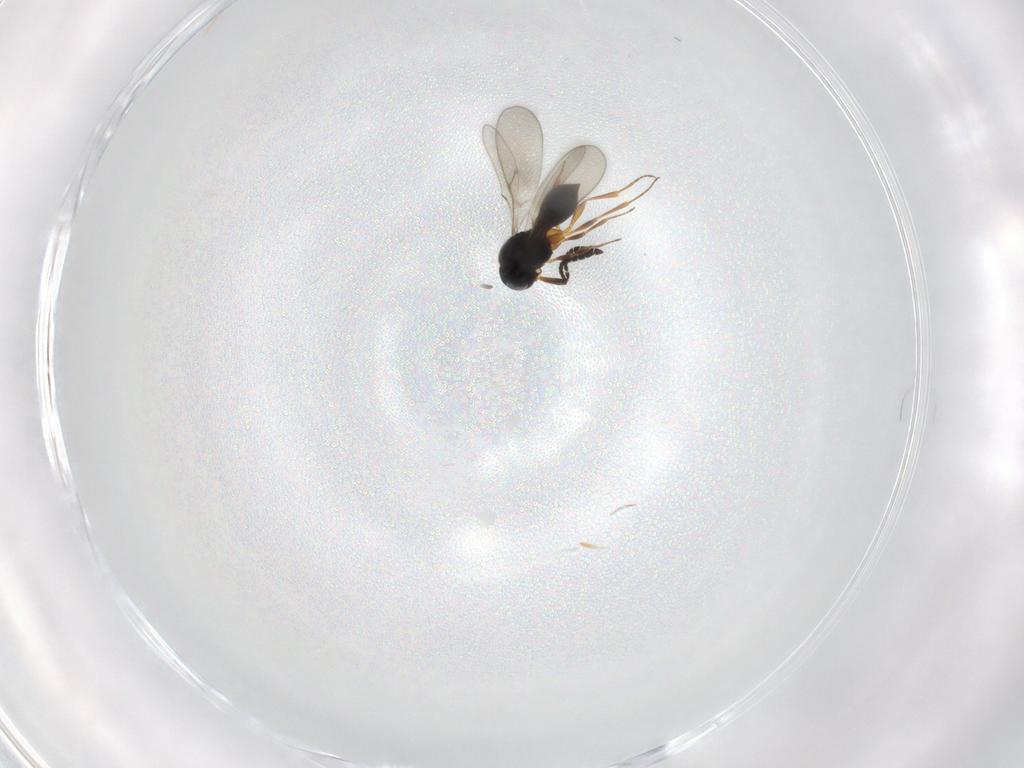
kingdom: Animalia
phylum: Arthropoda
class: Insecta
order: Hymenoptera
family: Scelionidae
